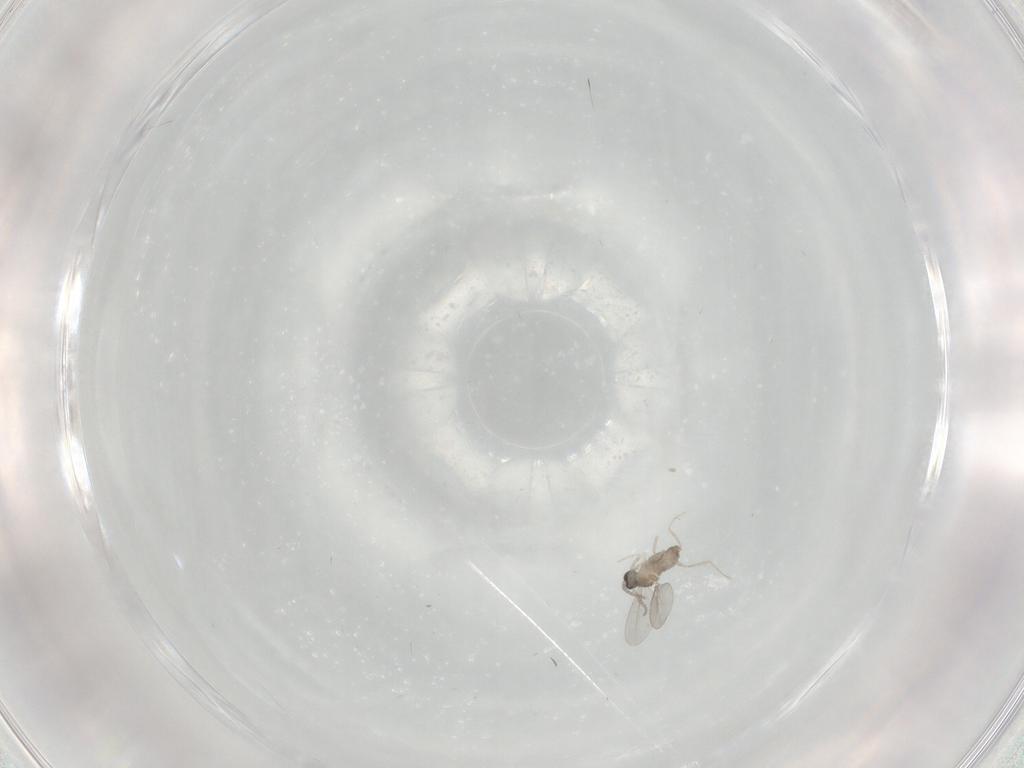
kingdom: Animalia
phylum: Arthropoda
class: Insecta
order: Diptera
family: Cecidomyiidae
